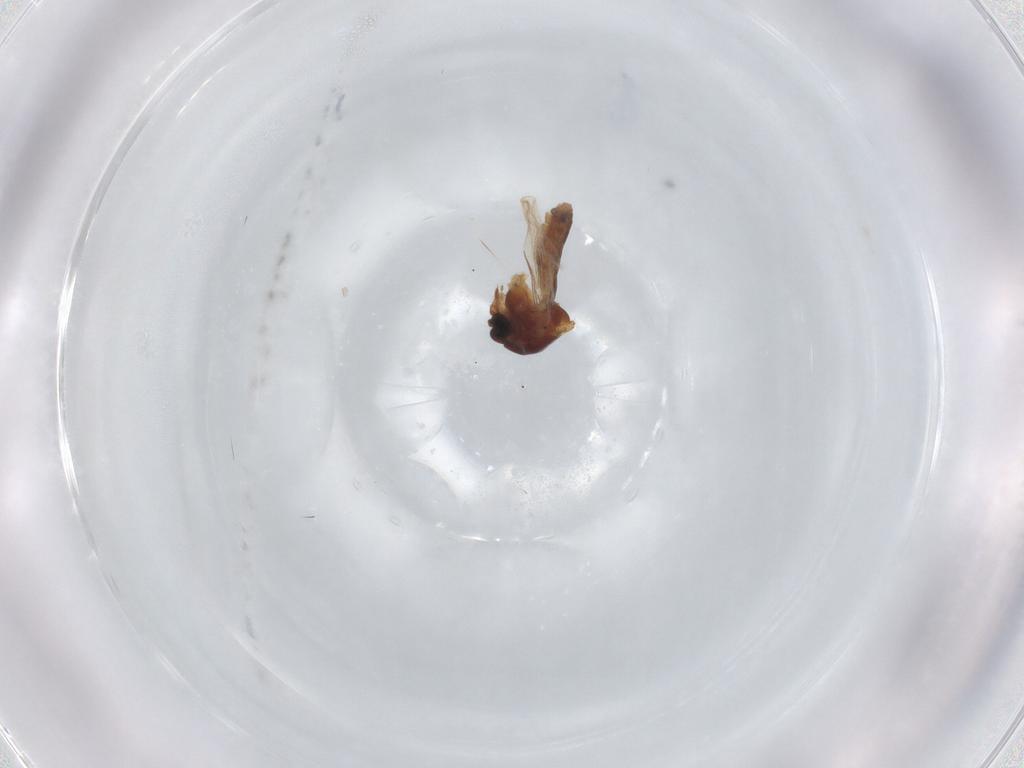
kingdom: Animalia
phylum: Arthropoda
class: Insecta
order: Diptera
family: Ceratopogonidae
